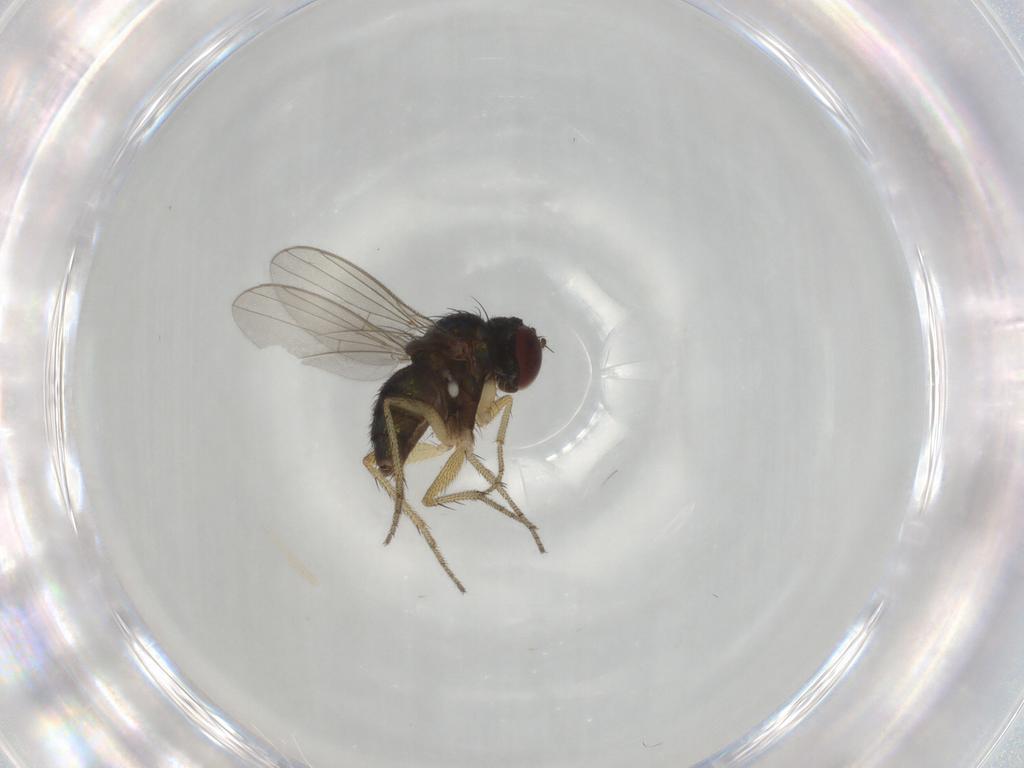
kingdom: Animalia
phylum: Arthropoda
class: Insecta
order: Diptera
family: Dolichopodidae
